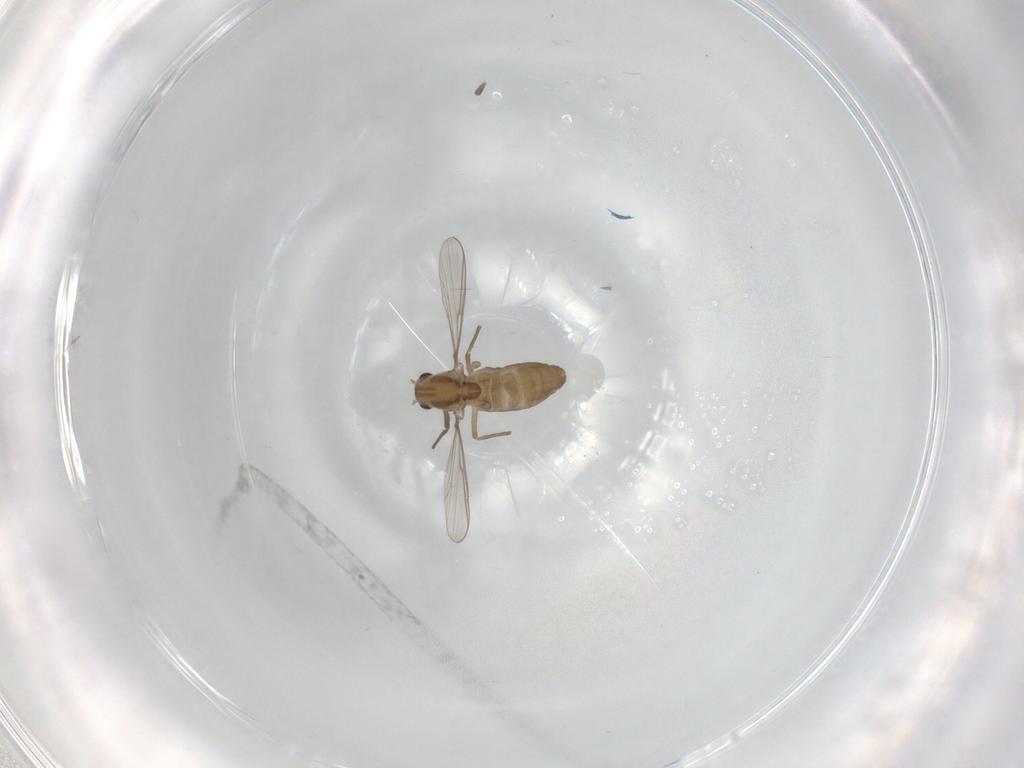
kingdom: Animalia
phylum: Arthropoda
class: Insecta
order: Diptera
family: Chironomidae
